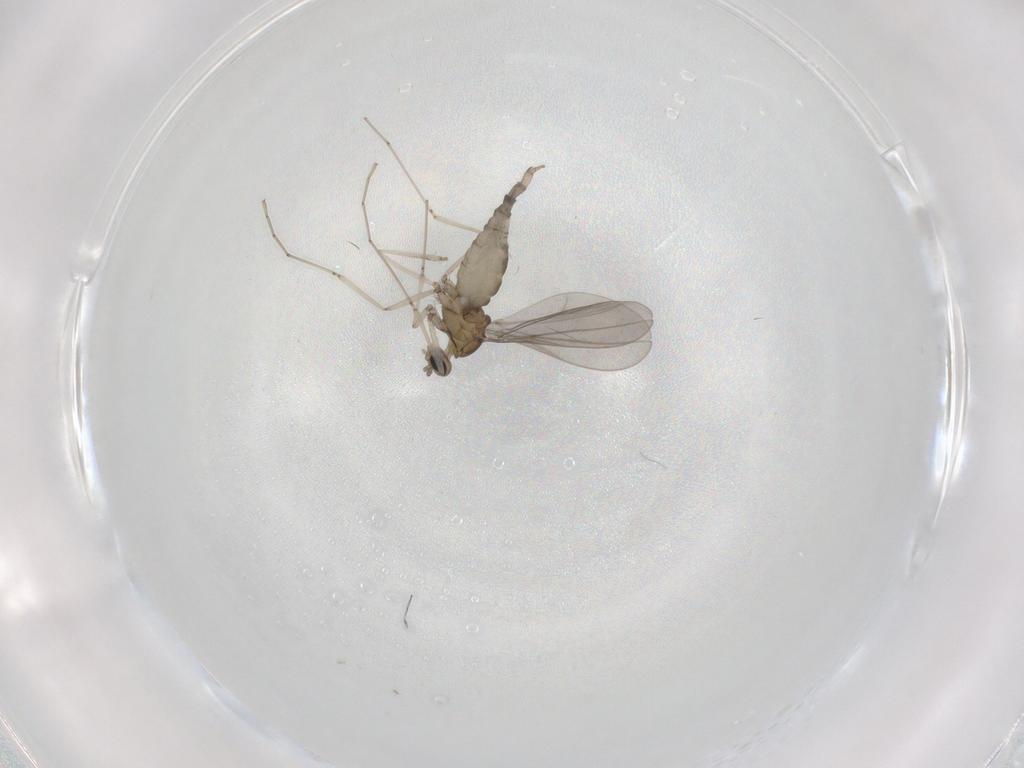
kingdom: Animalia
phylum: Arthropoda
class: Insecta
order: Diptera
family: Cecidomyiidae
